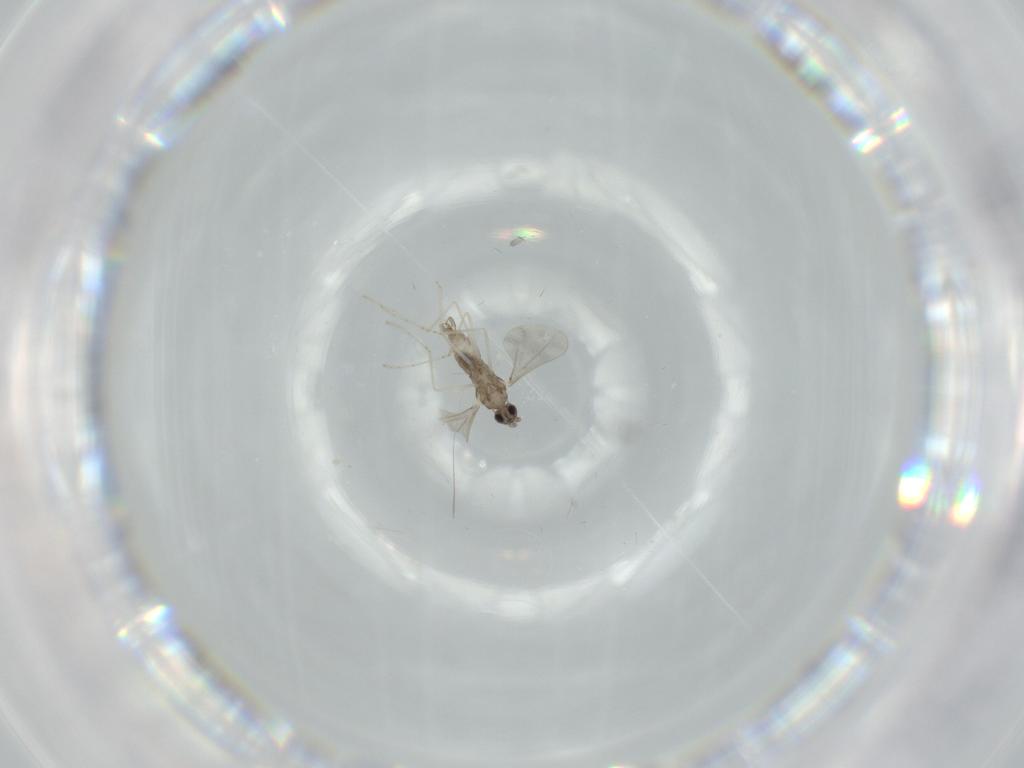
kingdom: Animalia
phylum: Arthropoda
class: Insecta
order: Diptera
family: Cecidomyiidae
